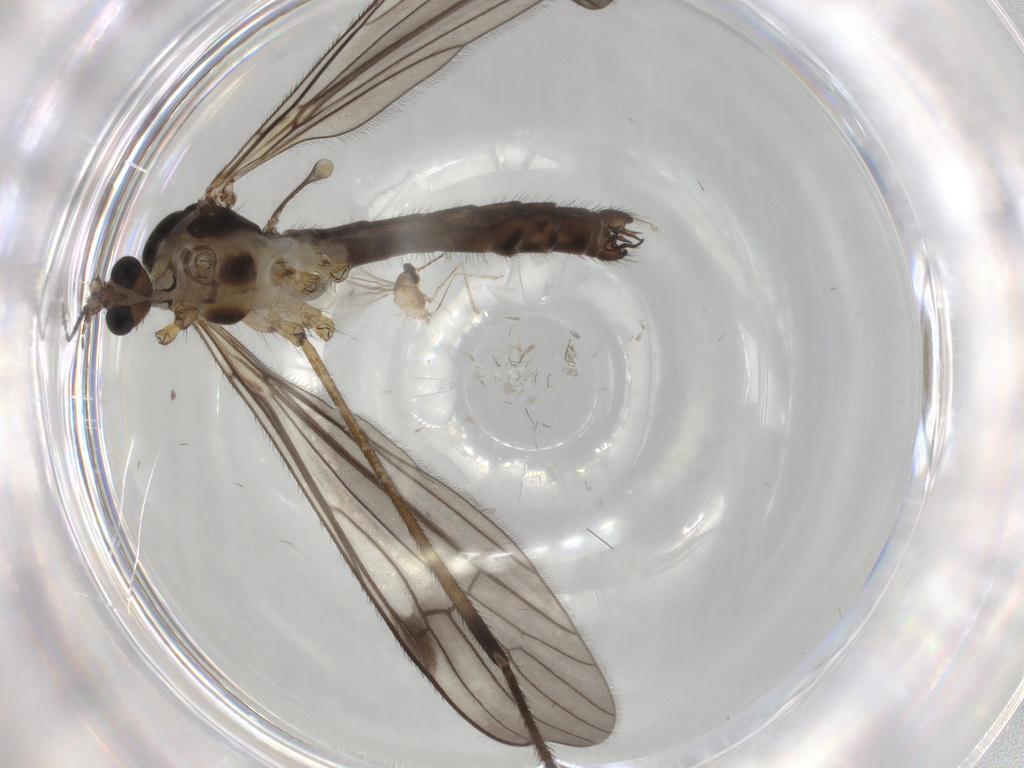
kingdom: Animalia
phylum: Arthropoda
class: Insecta
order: Diptera
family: Limoniidae
